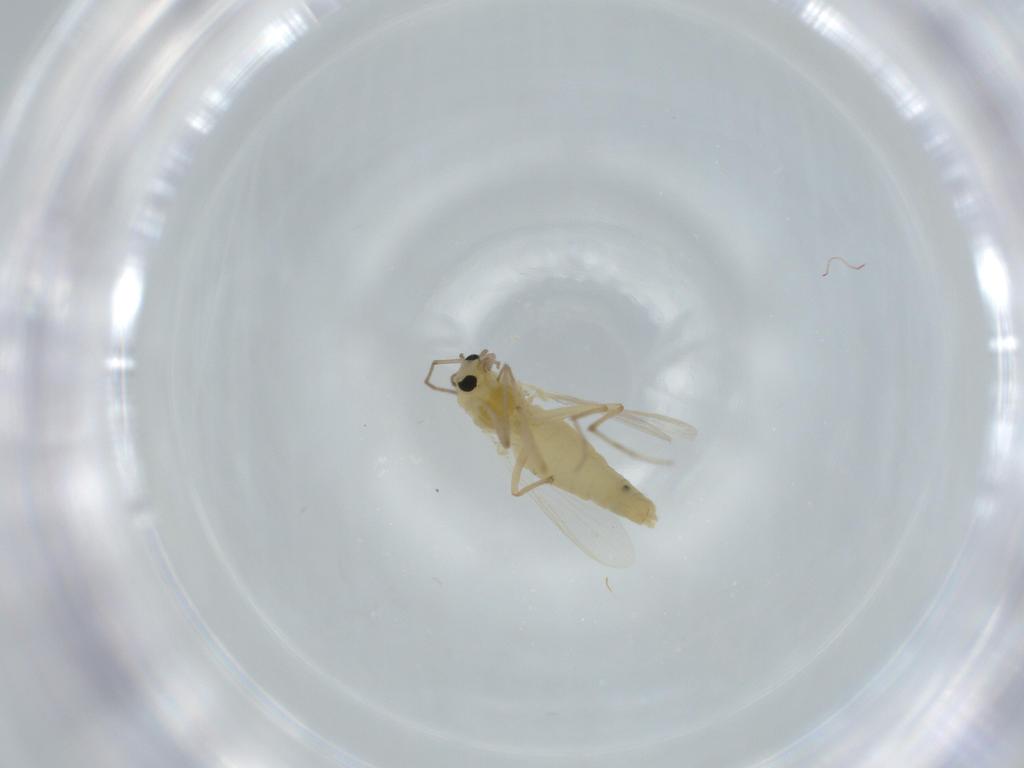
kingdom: Animalia
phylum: Arthropoda
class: Insecta
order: Diptera
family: Chironomidae
